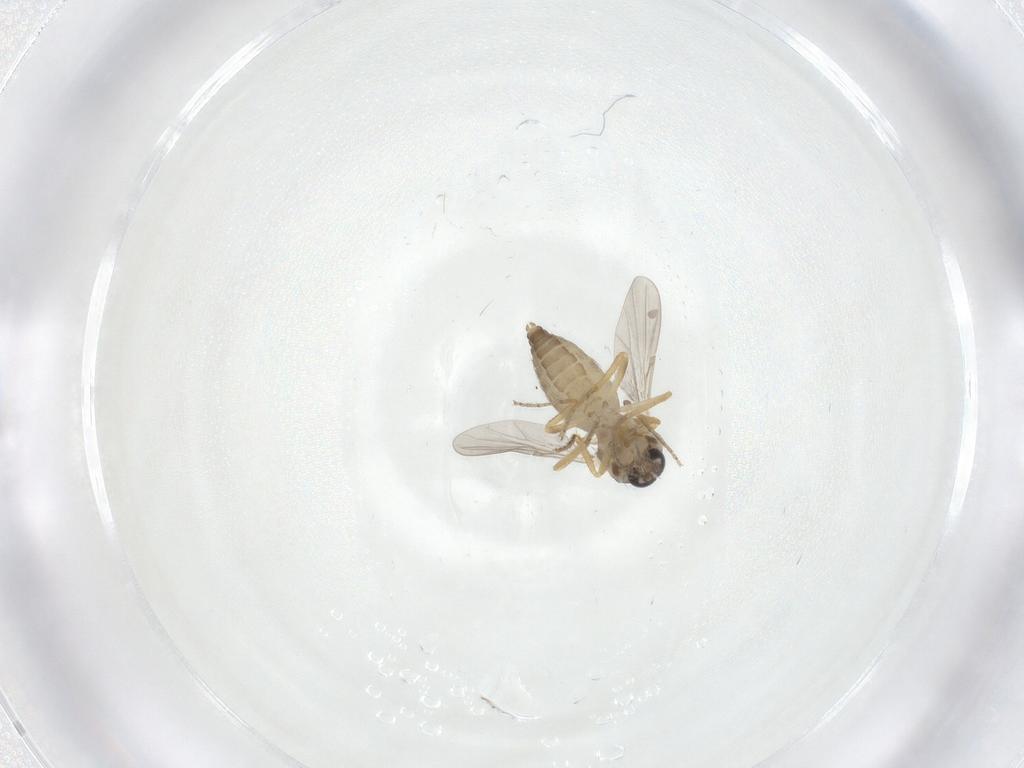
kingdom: Animalia
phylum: Arthropoda
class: Insecta
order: Diptera
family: Ceratopogonidae
